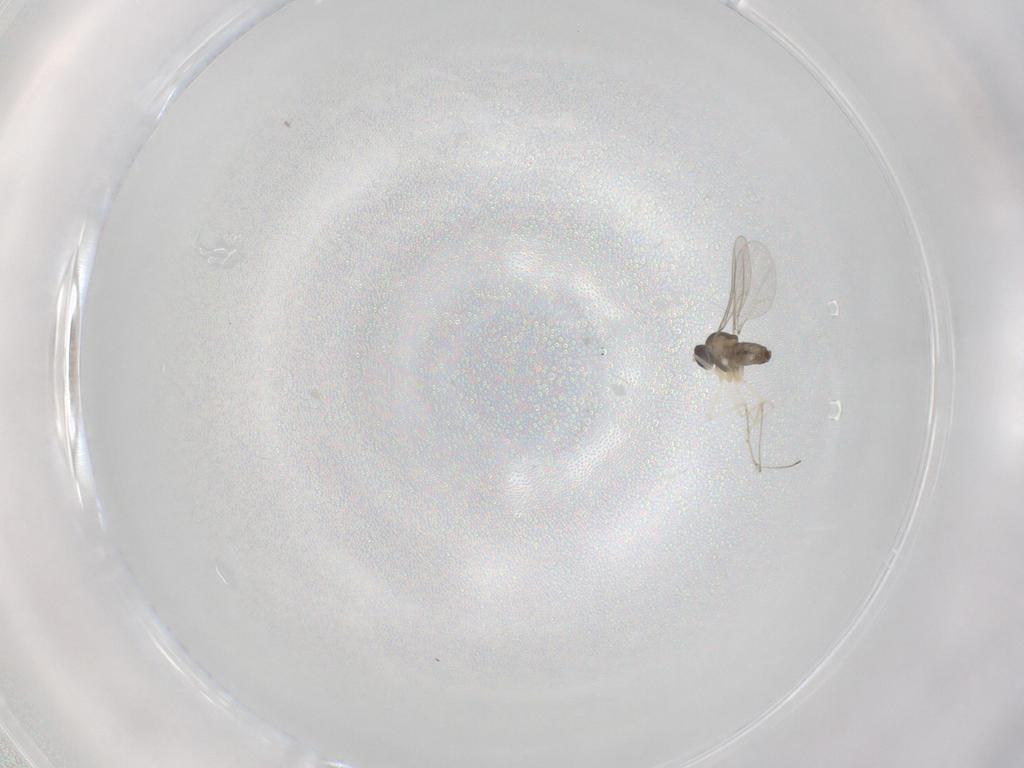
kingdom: Animalia
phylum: Arthropoda
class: Insecta
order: Diptera
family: Cecidomyiidae
